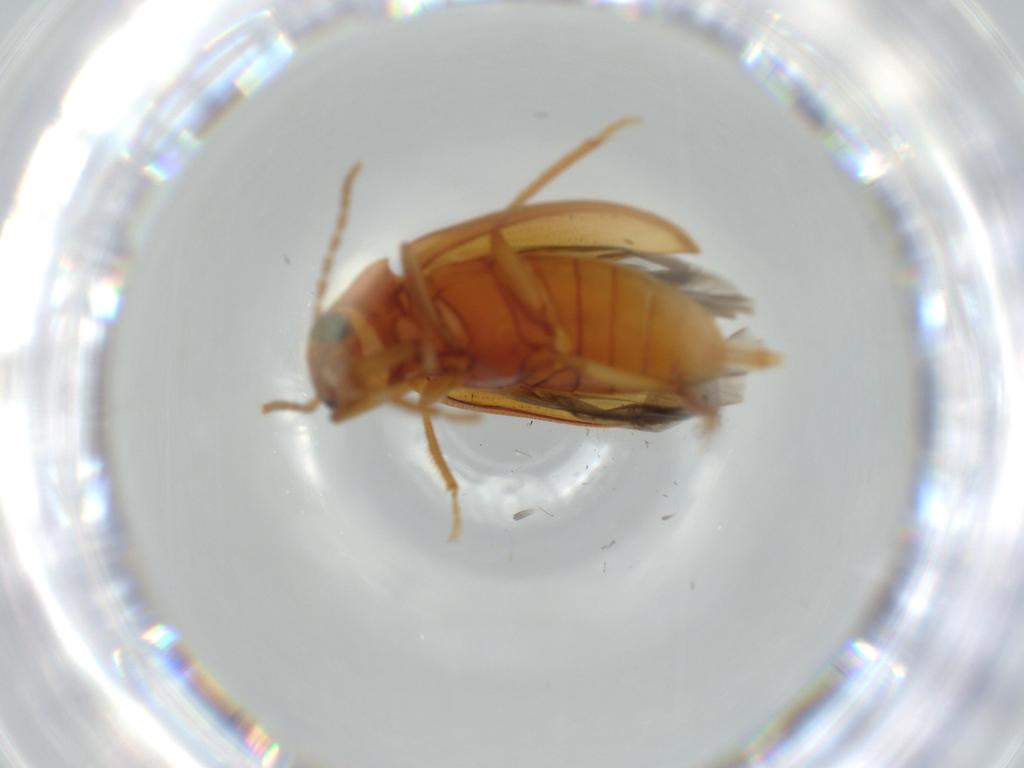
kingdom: Animalia
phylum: Arthropoda
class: Insecta
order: Coleoptera
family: Ptilodactylidae
